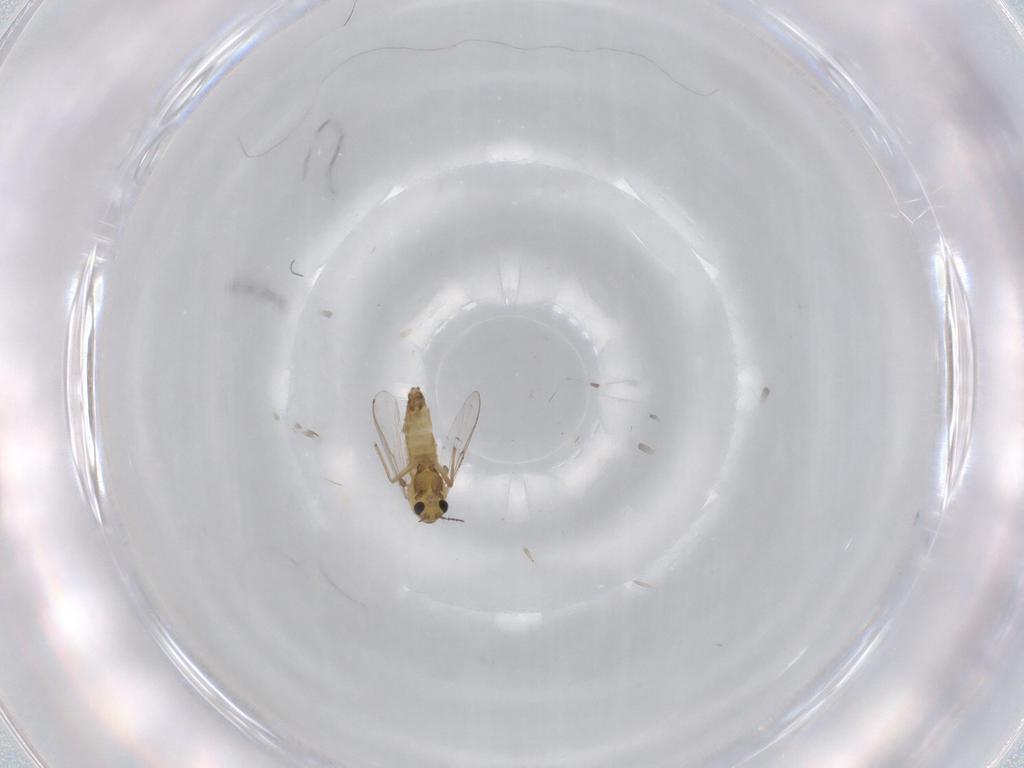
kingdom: Animalia
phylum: Arthropoda
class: Insecta
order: Diptera
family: Chironomidae
